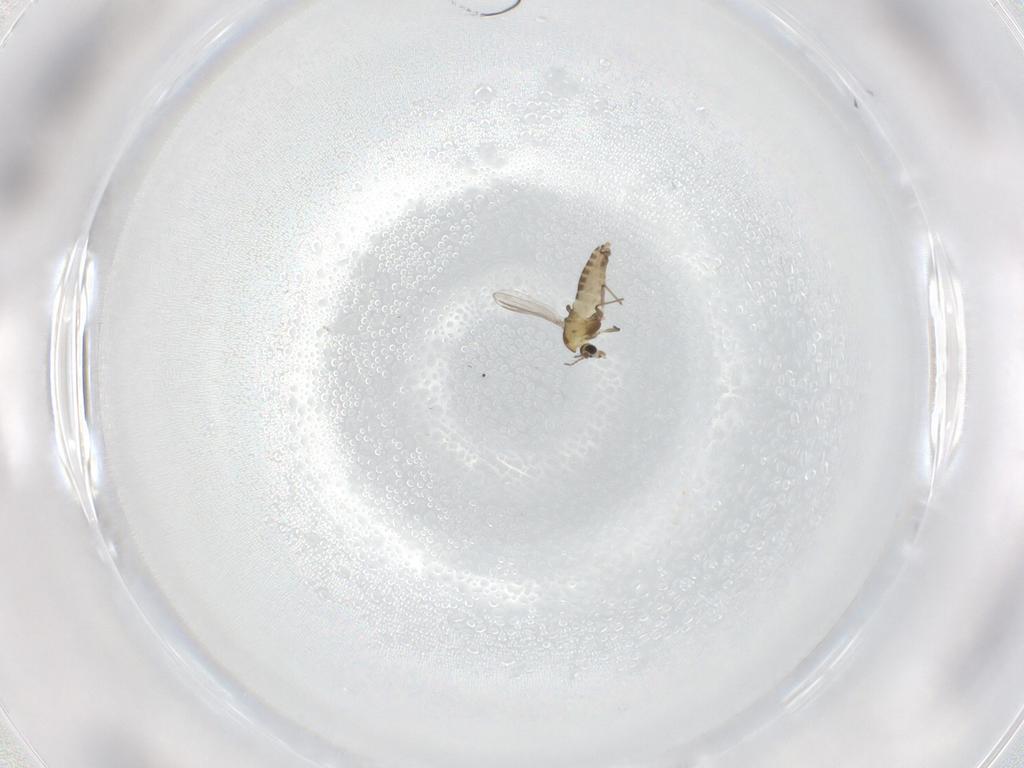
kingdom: Animalia
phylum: Arthropoda
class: Insecta
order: Diptera
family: Chironomidae
